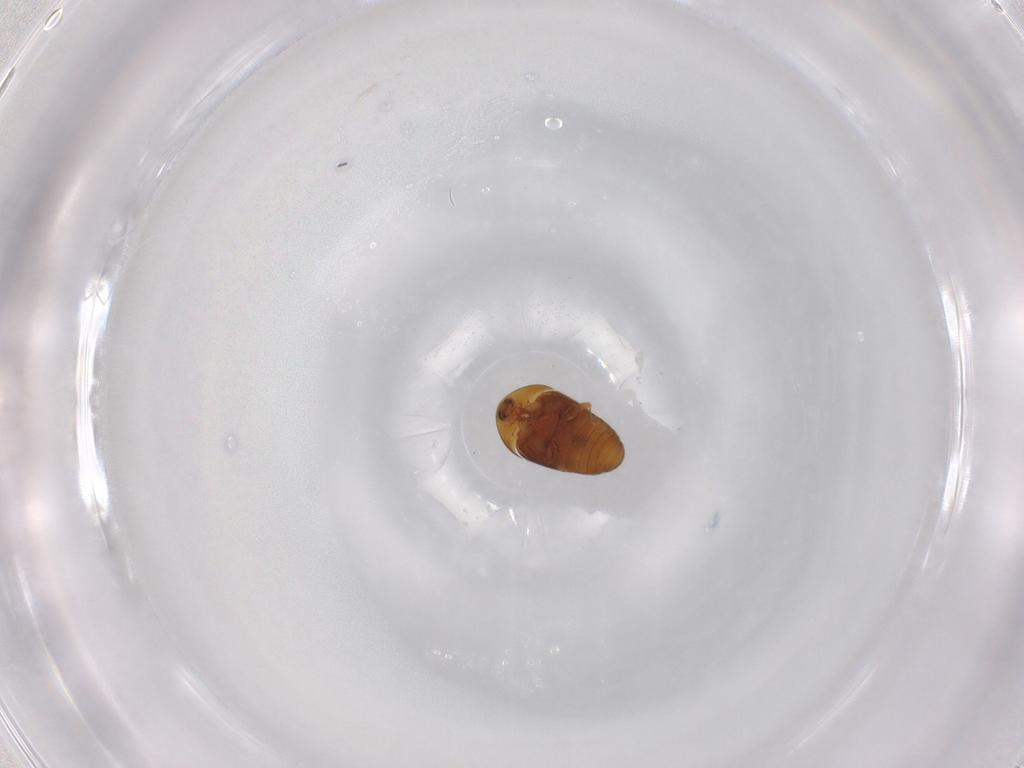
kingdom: Animalia
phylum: Arthropoda
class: Insecta
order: Coleoptera
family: Corylophidae
